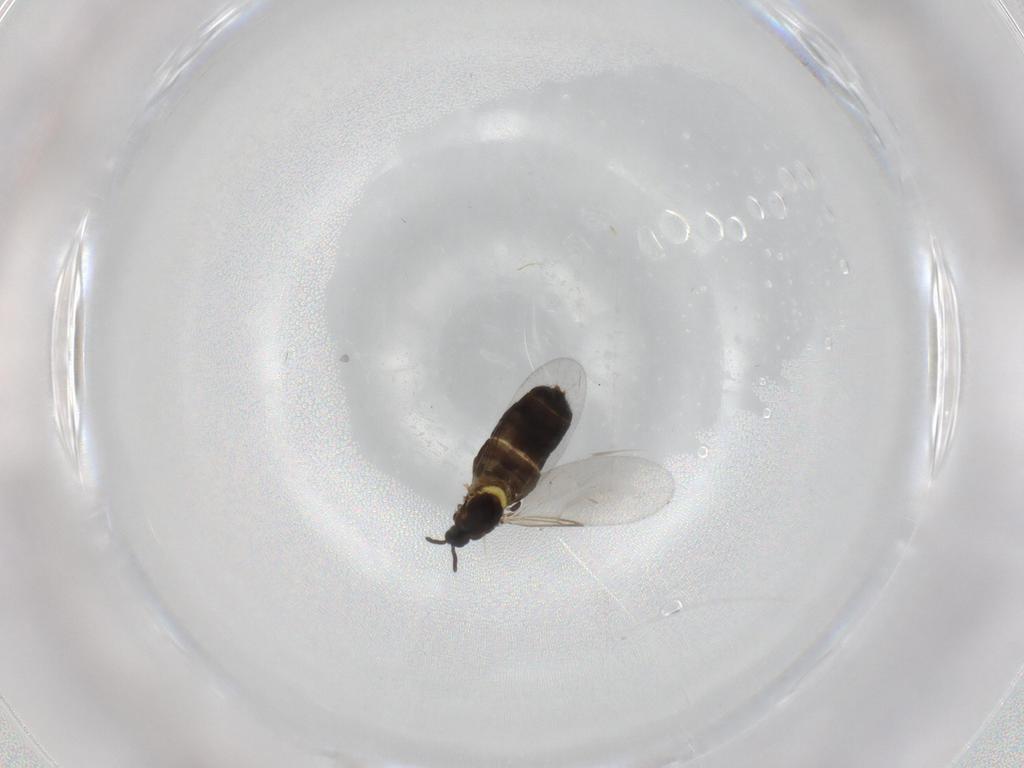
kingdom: Animalia
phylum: Arthropoda
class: Insecta
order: Diptera
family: Scatopsidae
